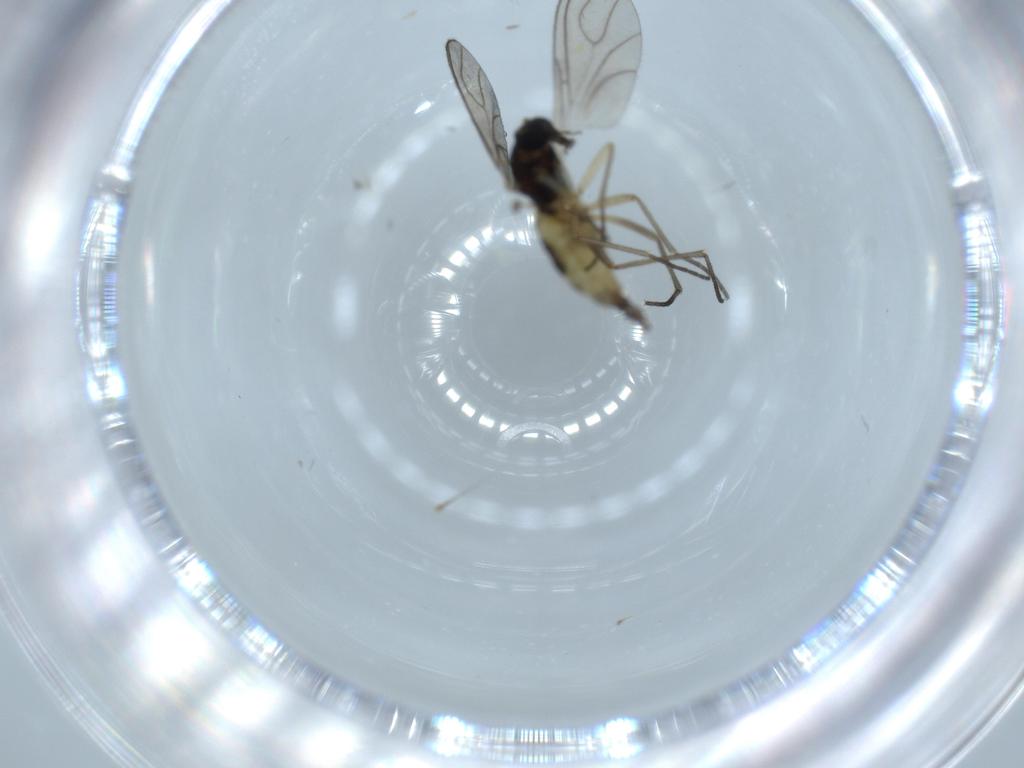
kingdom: Animalia
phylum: Arthropoda
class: Insecta
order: Diptera
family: Sciaridae
